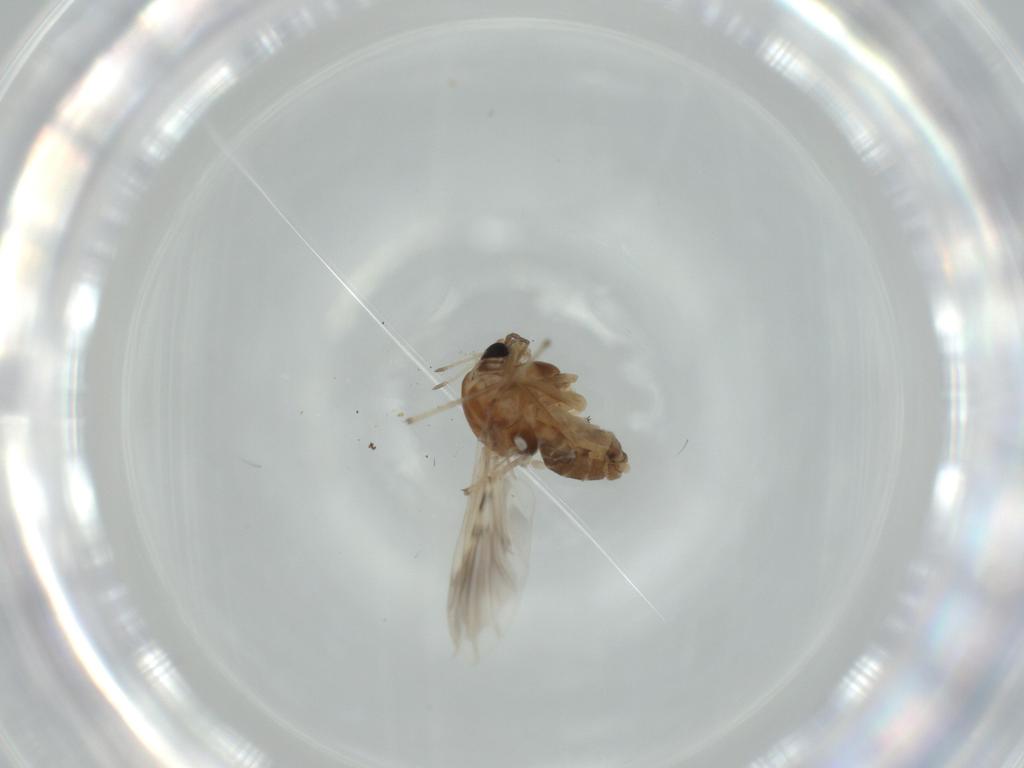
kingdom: Animalia
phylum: Arthropoda
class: Insecta
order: Diptera
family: Chironomidae
